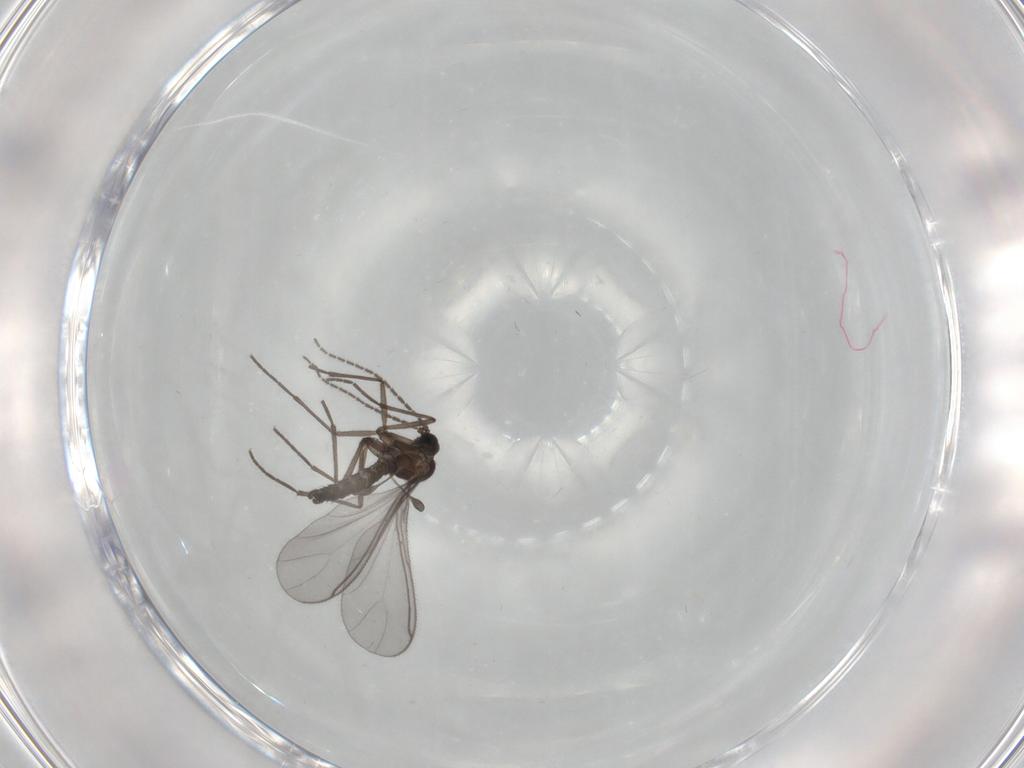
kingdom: Animalia
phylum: Arthropoda
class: Insecta
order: Diptera
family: Sciaridae
